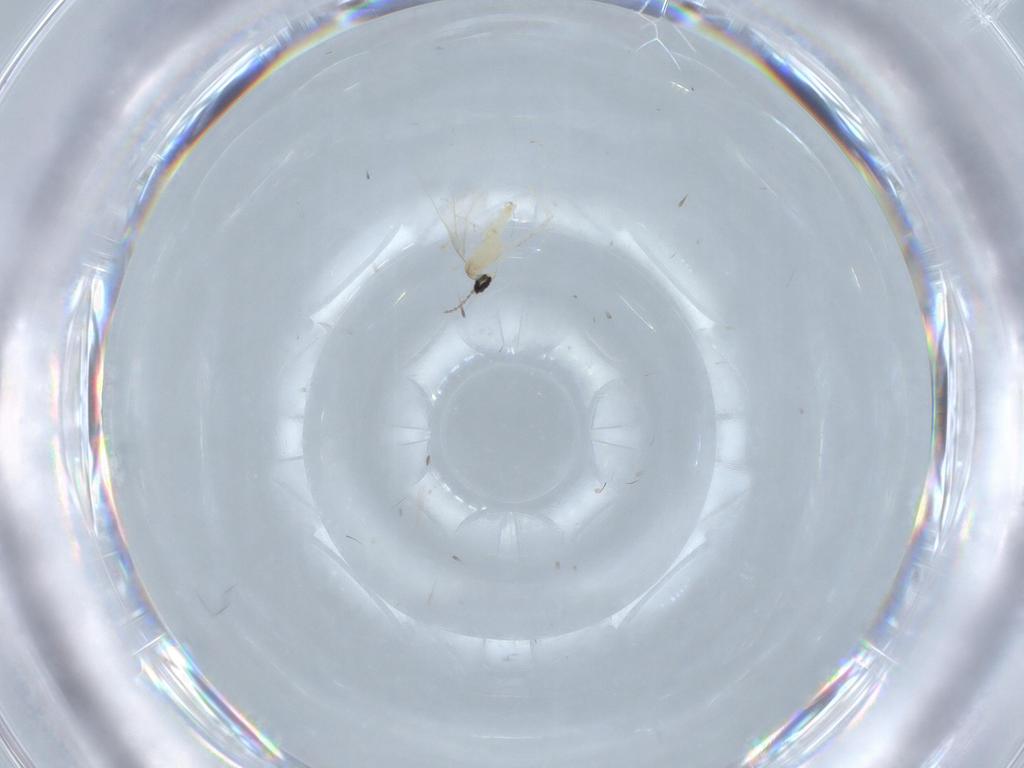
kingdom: Animalia
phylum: Arthropoda
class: Insecta
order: Diptera
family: Cecidomyiidae
